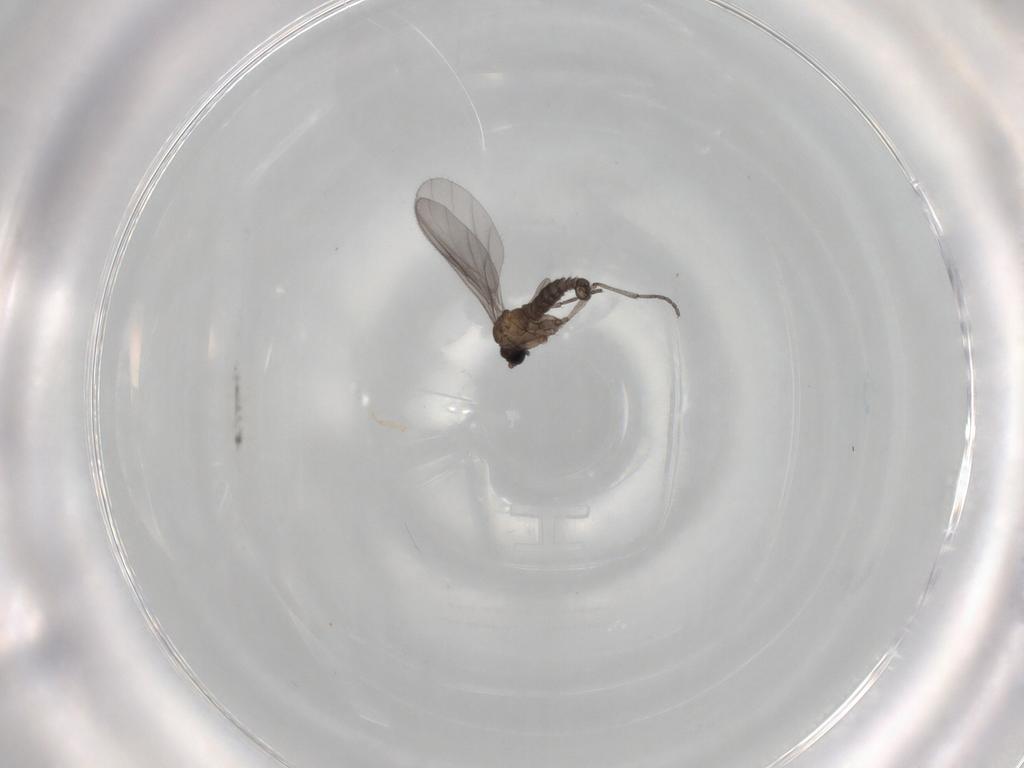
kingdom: Animalia
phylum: Arthropoda
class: Insecta
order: Diptera
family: Sciaridae
